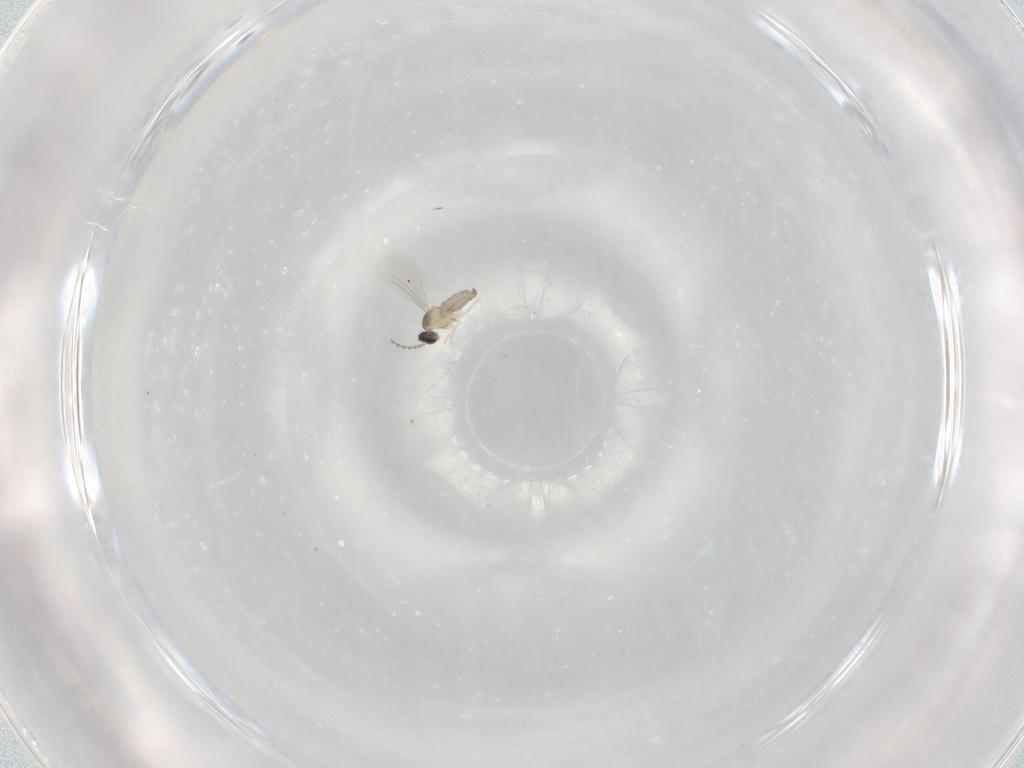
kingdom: Animalia
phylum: Arthropoda
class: Insecta
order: Diptera
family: Cecidomyiidae
